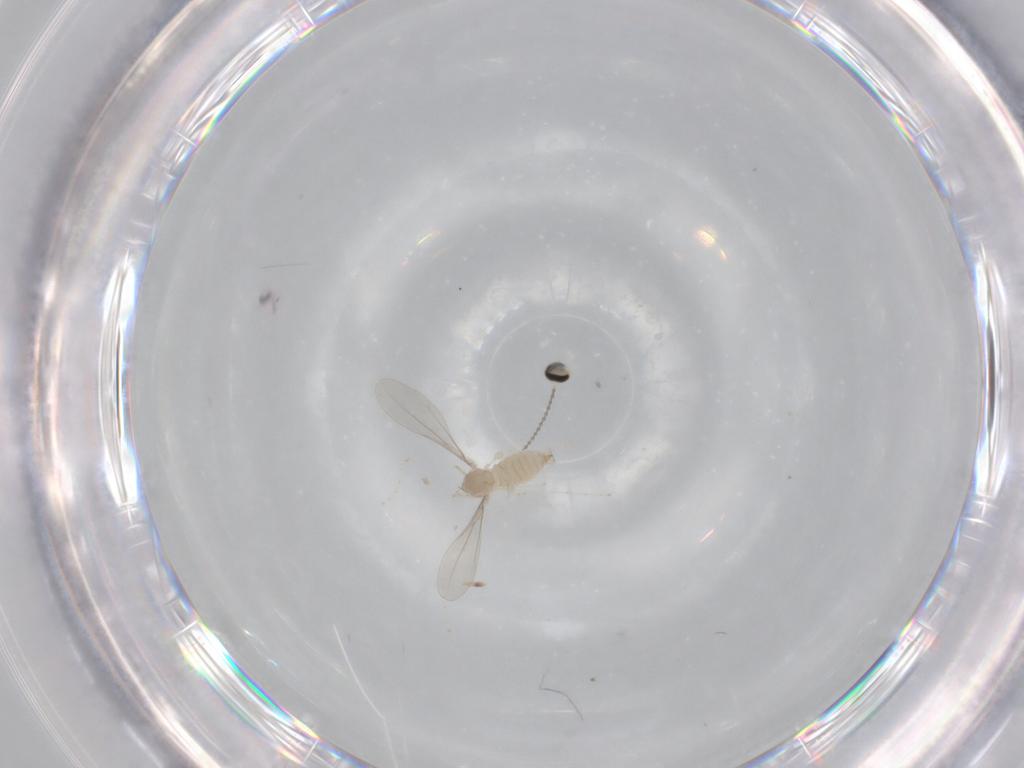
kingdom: Animalia
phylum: Arthropoda
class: Insecta
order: Diptera
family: Cecidomyiidae
